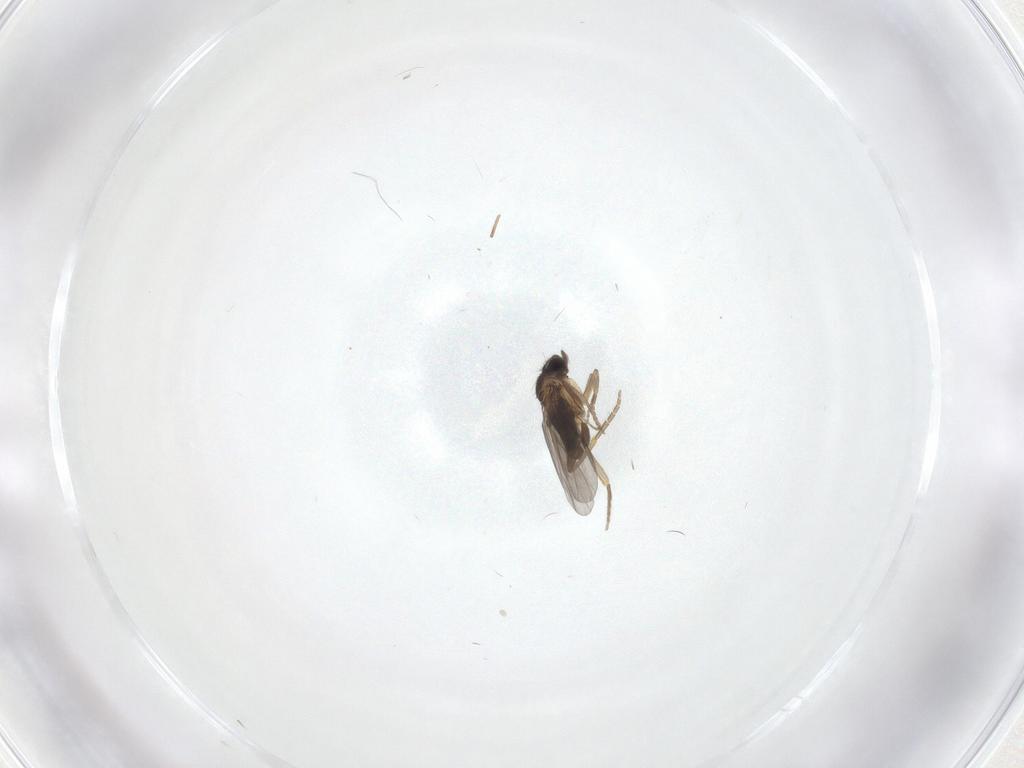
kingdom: Animalia
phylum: Arthropoda
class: Insecta
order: Diptera
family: Limoniidae
